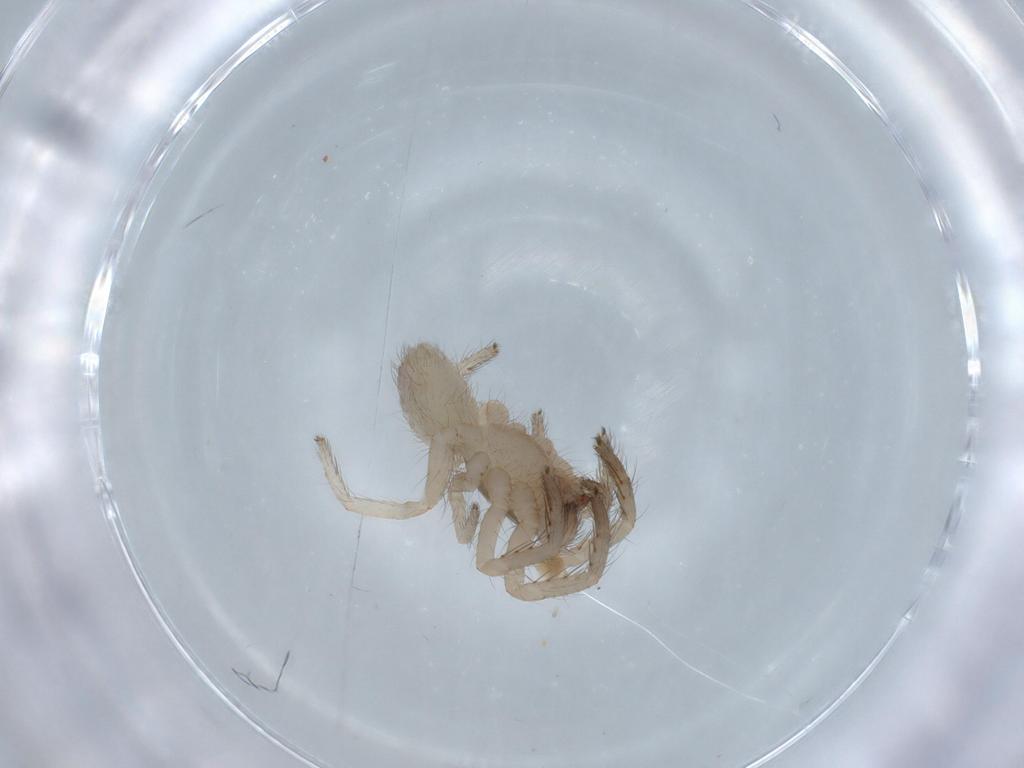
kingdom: Animalia
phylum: Arthropoda
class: Arachnida
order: Araneae
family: Segestriidae
